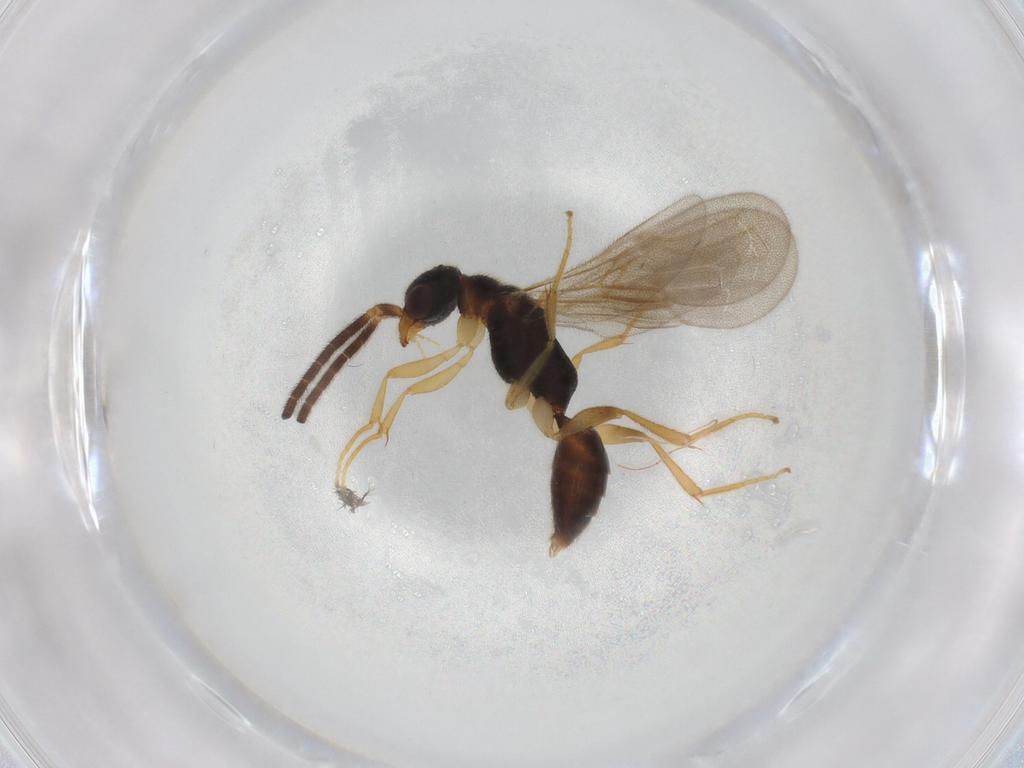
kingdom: Animalia
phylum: Arthropoda
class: Insecta
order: Hymenoptera
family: Bethylidae
